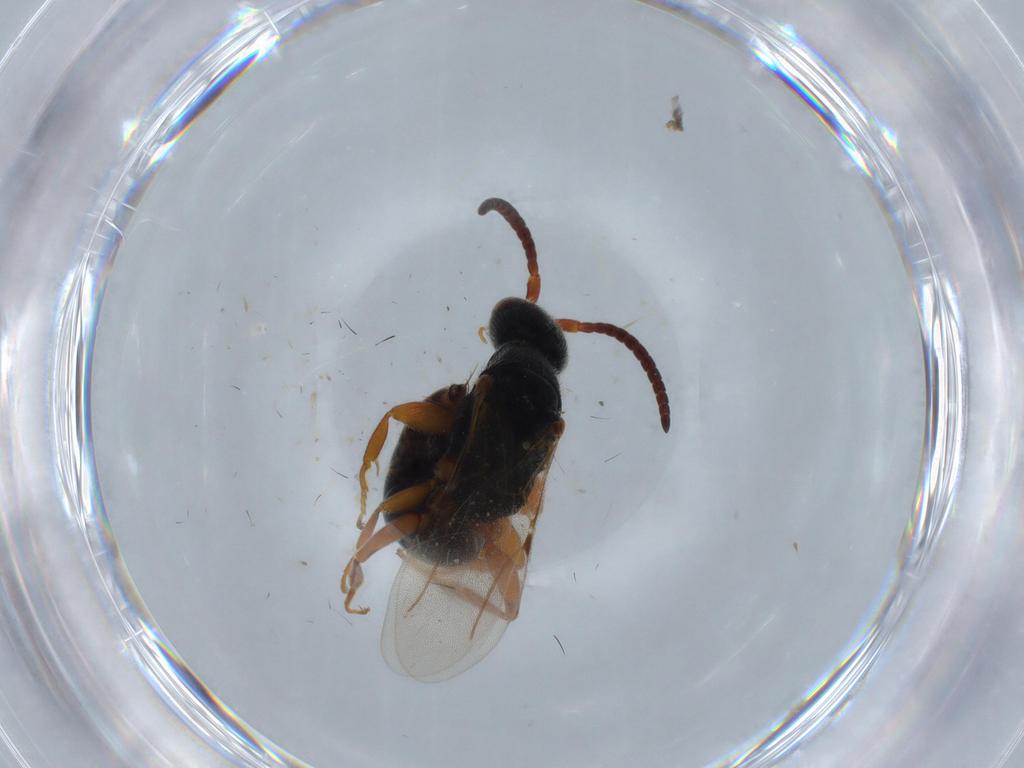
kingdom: Animalia
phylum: Arthropoda
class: Insecta
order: Hymenoptera
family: Bethylidae
